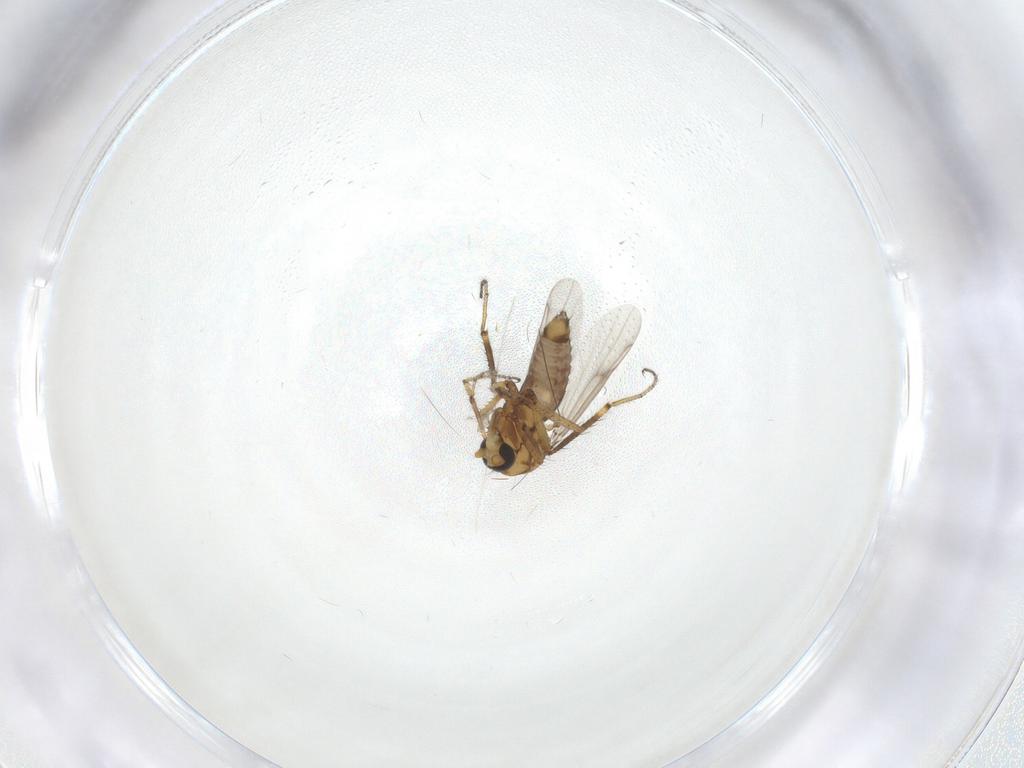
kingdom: Animalia
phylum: Arthropoda
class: Insecta
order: Diptera
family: Ceratopogonidae
